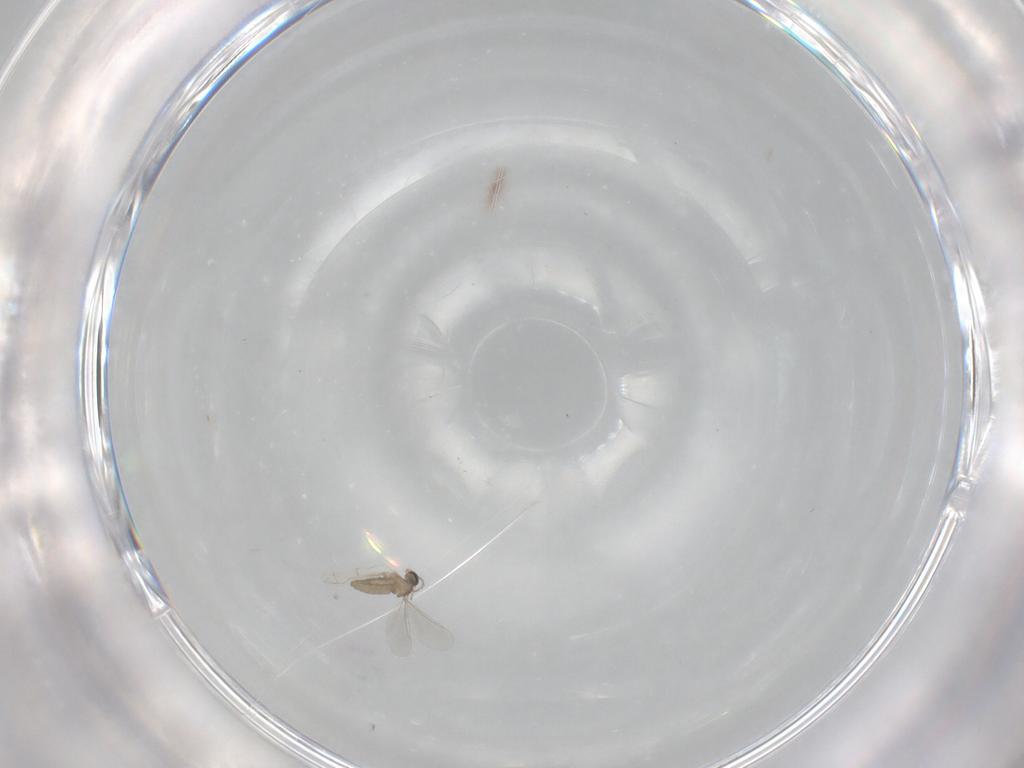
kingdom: Animalia
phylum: Arthropoda
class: Insecta
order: Diptera
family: Cecidomyiidae
